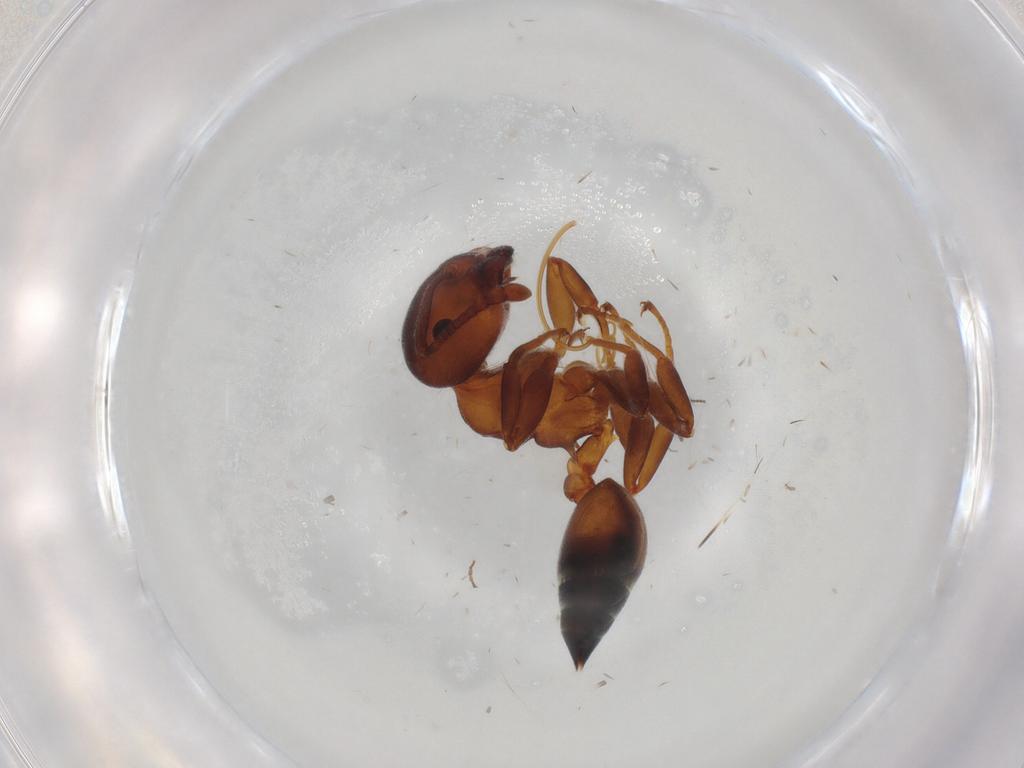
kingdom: Animalia
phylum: Arthropoda
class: Insecta
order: Hymenoptera
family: Formicidae
